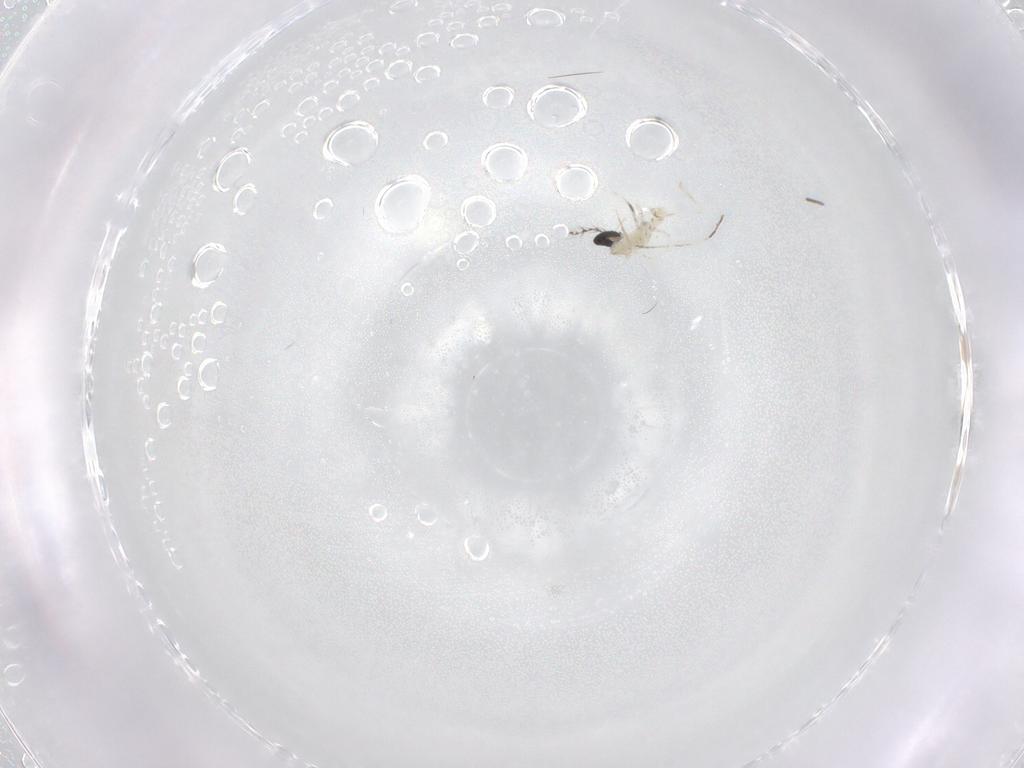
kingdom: Animalia
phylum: Arthropoda
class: Insecta
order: Diptera
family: Cecidomyiidae
